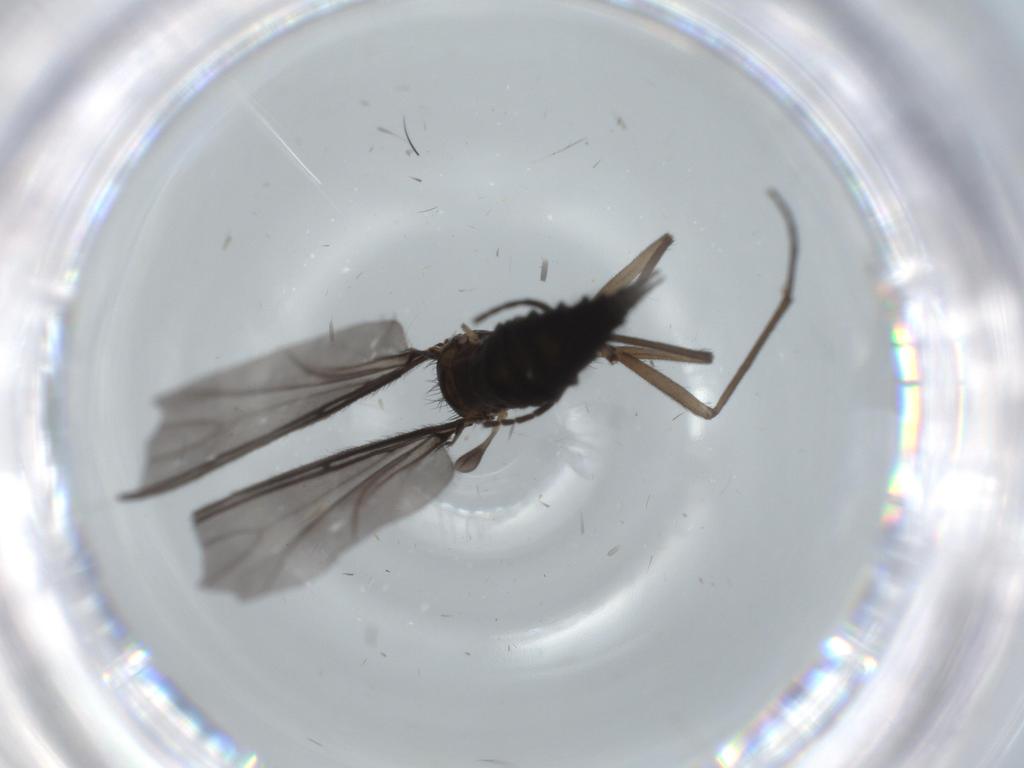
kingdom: Animalia
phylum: Arthropoda
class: Insecta
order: Diptera
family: Sciaridae
